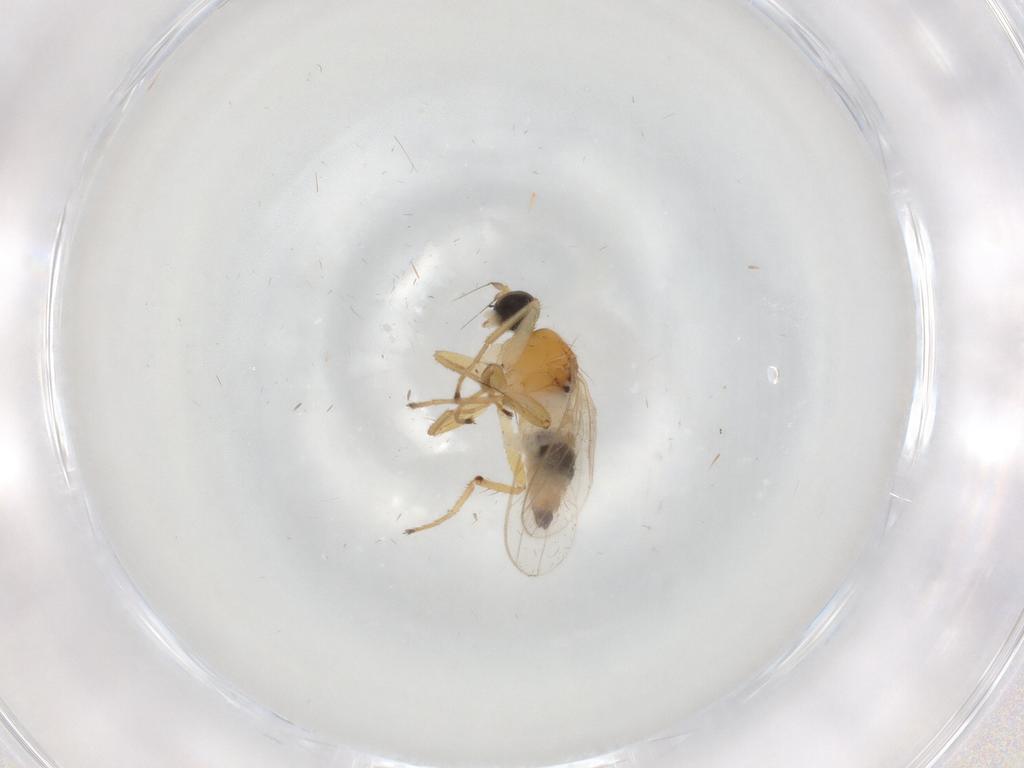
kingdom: Animalia
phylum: Arthropoda
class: Insecta
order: Diptera
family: Hybotidae
